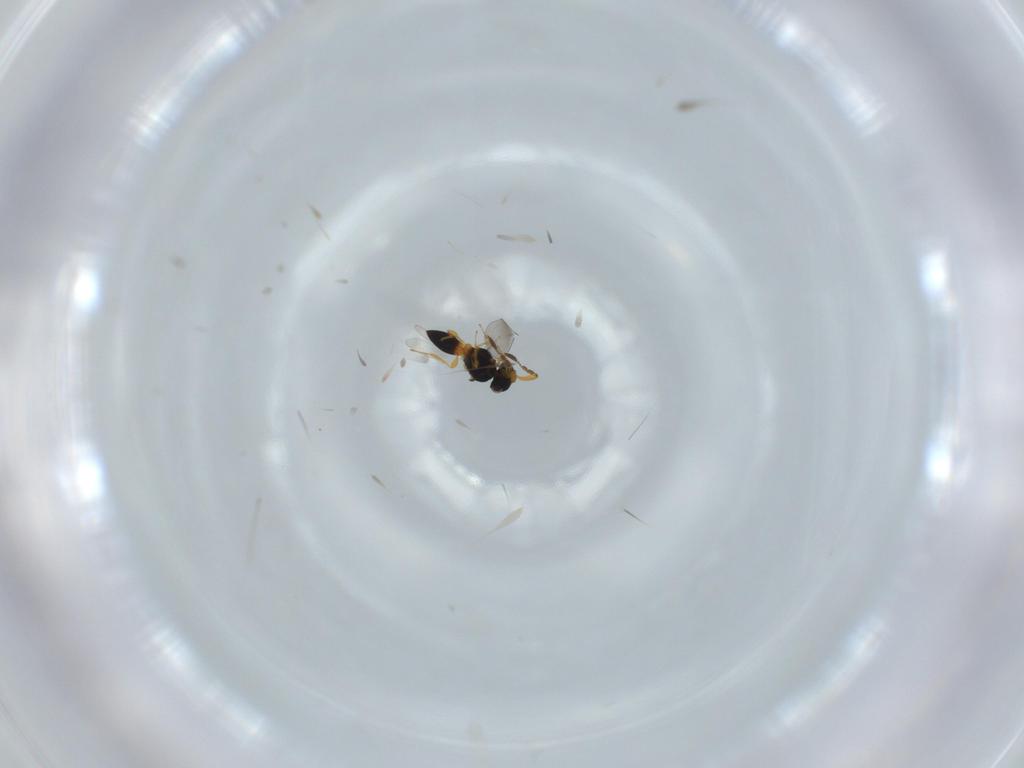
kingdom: Animalia
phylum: Arthropoda
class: Insecta
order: Hymenoptera
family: Platygastridae
